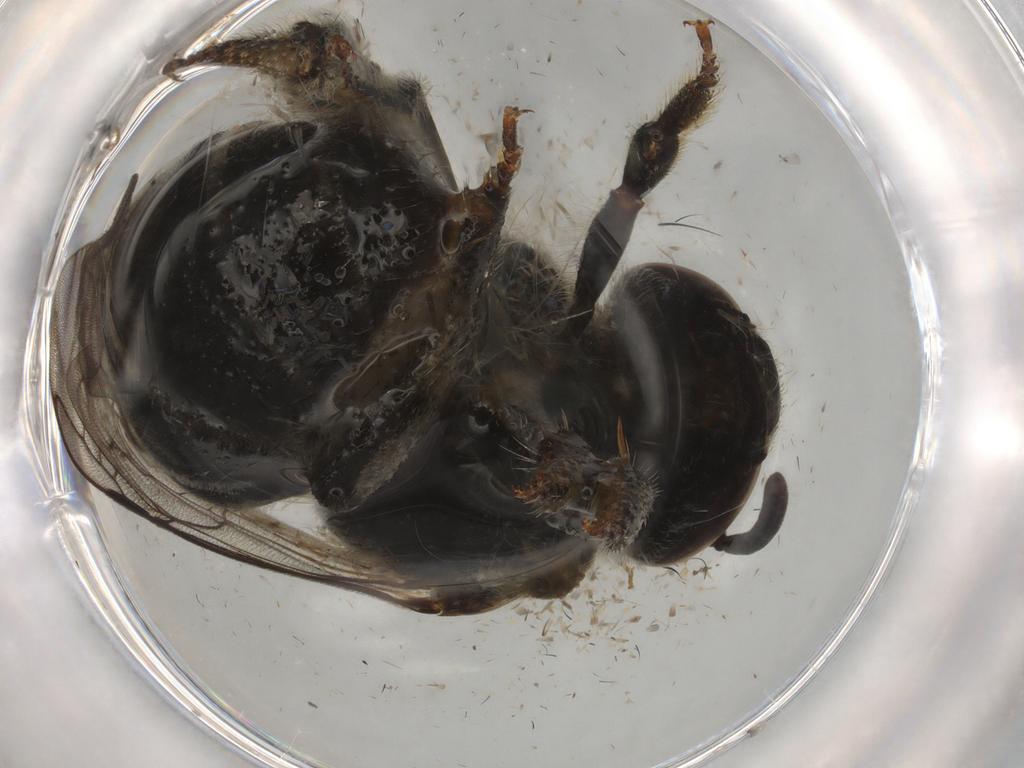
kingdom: Animalia
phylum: Arthropoda
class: Insecta
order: Hymenoptera
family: Halictidae
